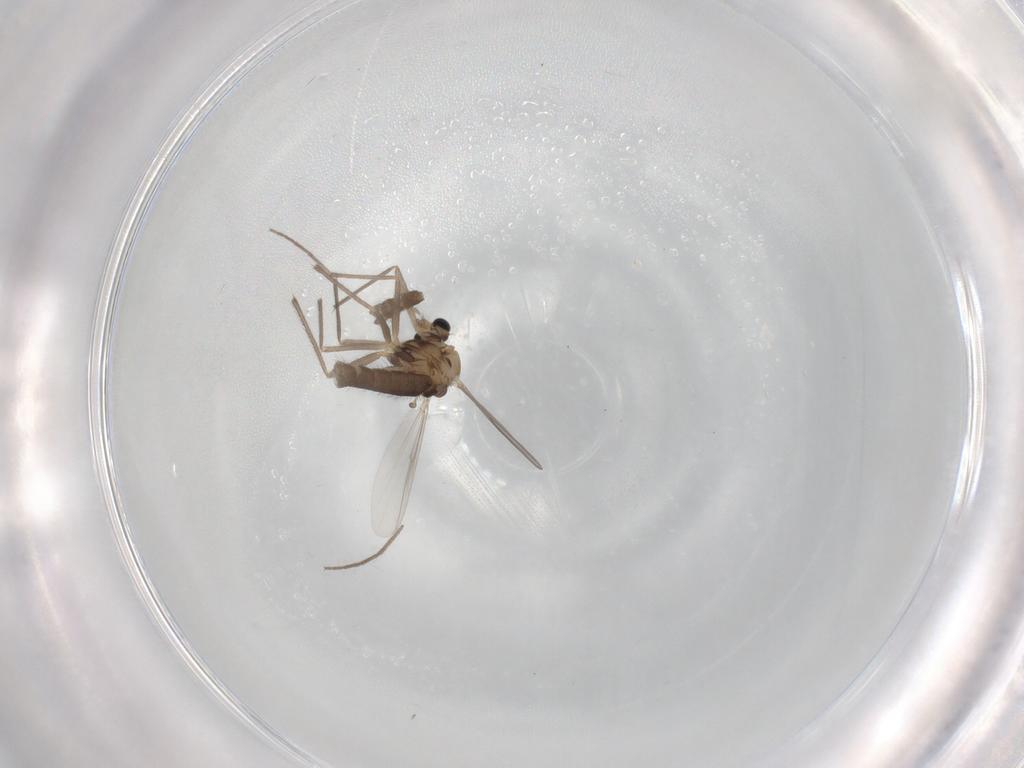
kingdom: Animalia
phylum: Arthropoda
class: Insecta
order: Diptera
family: Chironomidae
